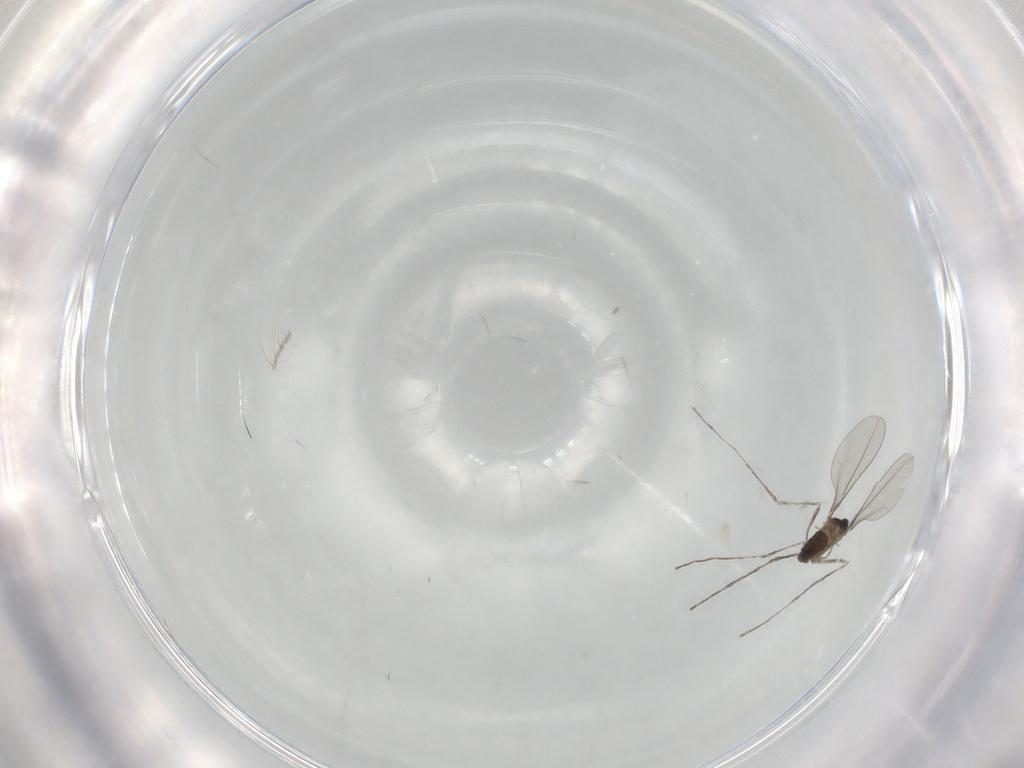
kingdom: Animalia
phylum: Arthropoda
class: Insecta
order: Diptera
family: Cecidomyiidae
